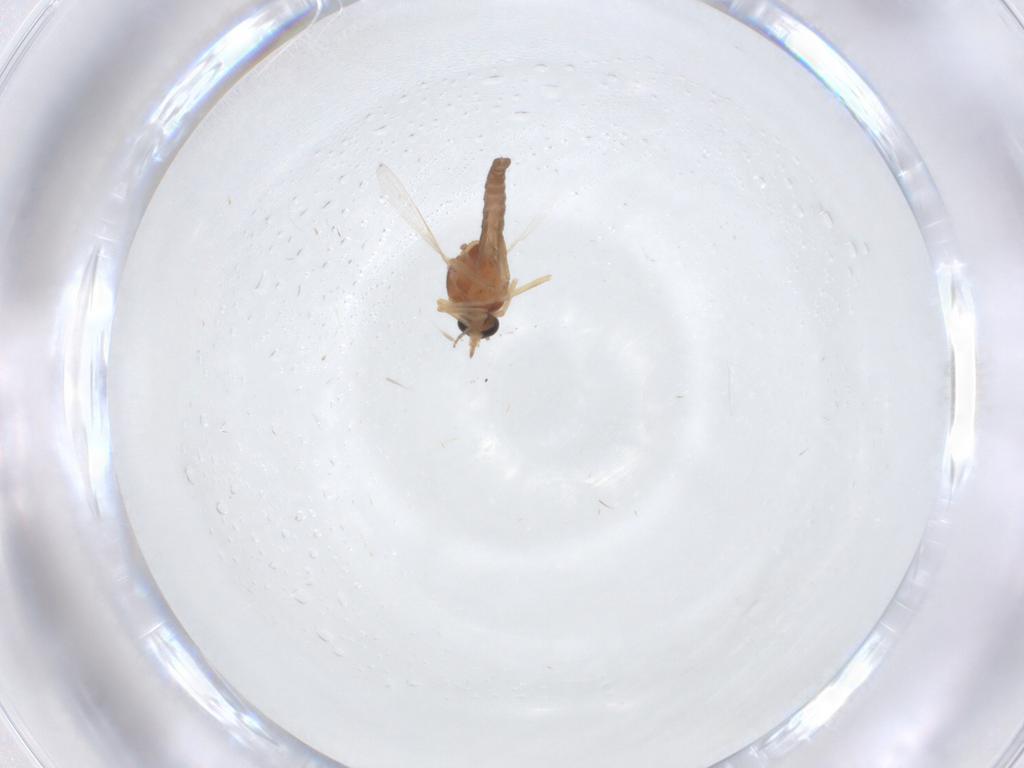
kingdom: Animalia
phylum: Arthropoda
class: Insecta
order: Diptera
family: Ceratopogonidae
